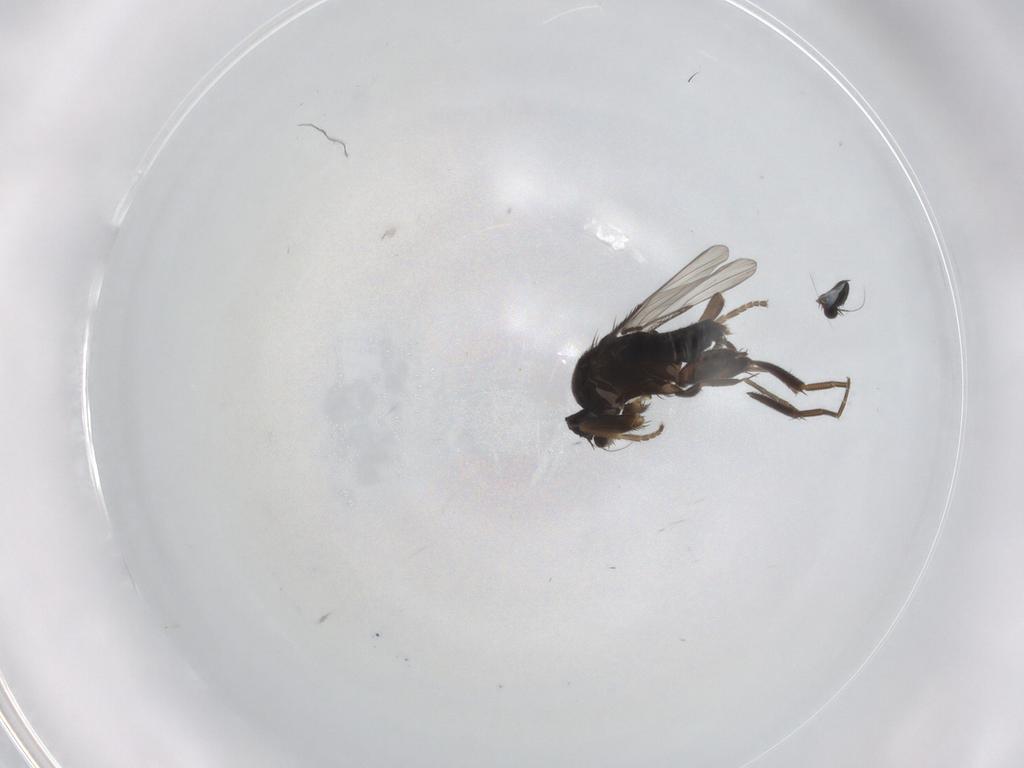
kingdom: Animalia
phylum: Arthropoda
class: Insecta
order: Diptera
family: Phoridae
